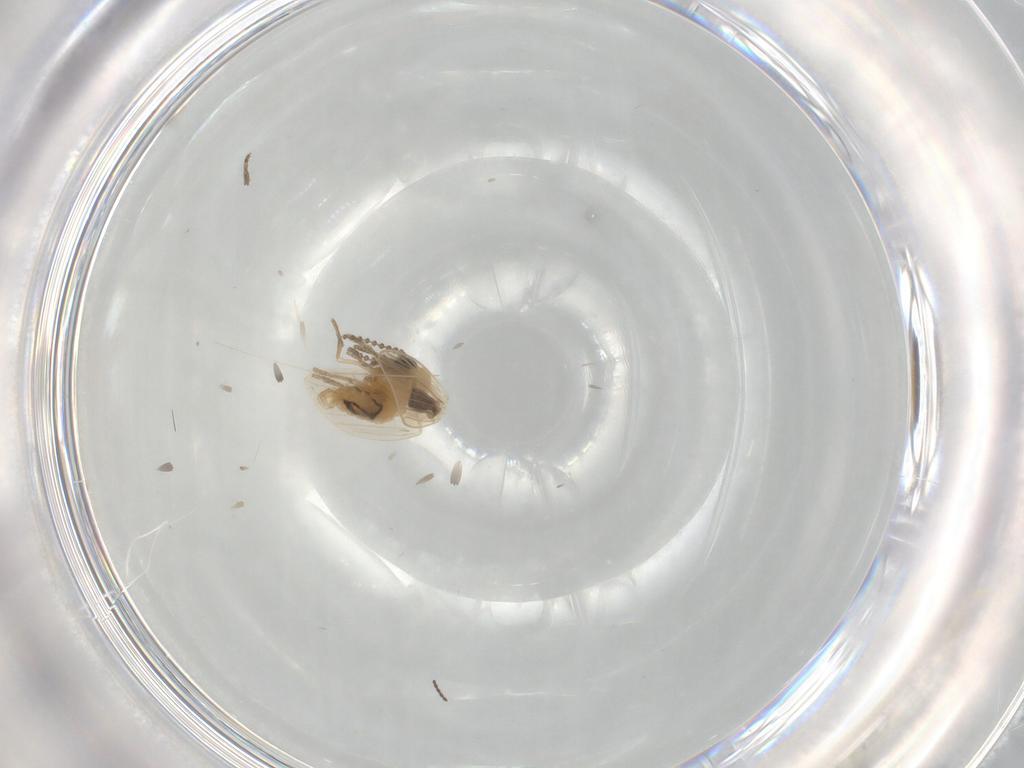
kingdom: Animalia
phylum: Arthropoda
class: Insecta
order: Diptera
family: Psychodidae
